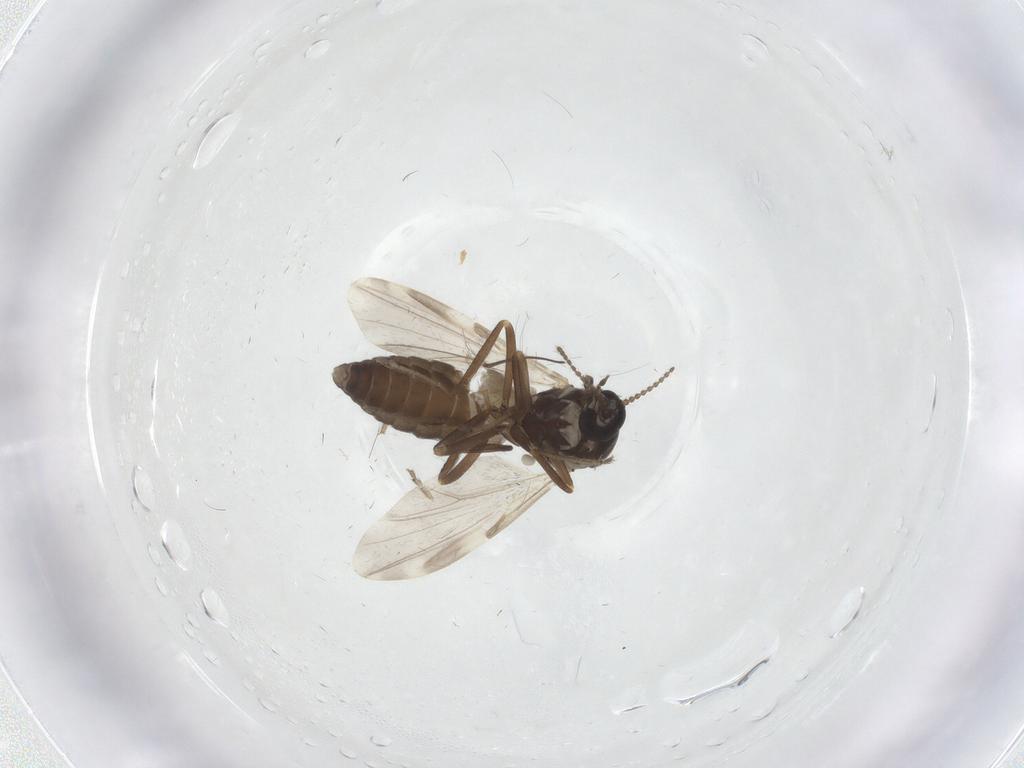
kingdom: Animalia
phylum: Arthropoda
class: Insecta
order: Diptera
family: Ceratopogonidae
